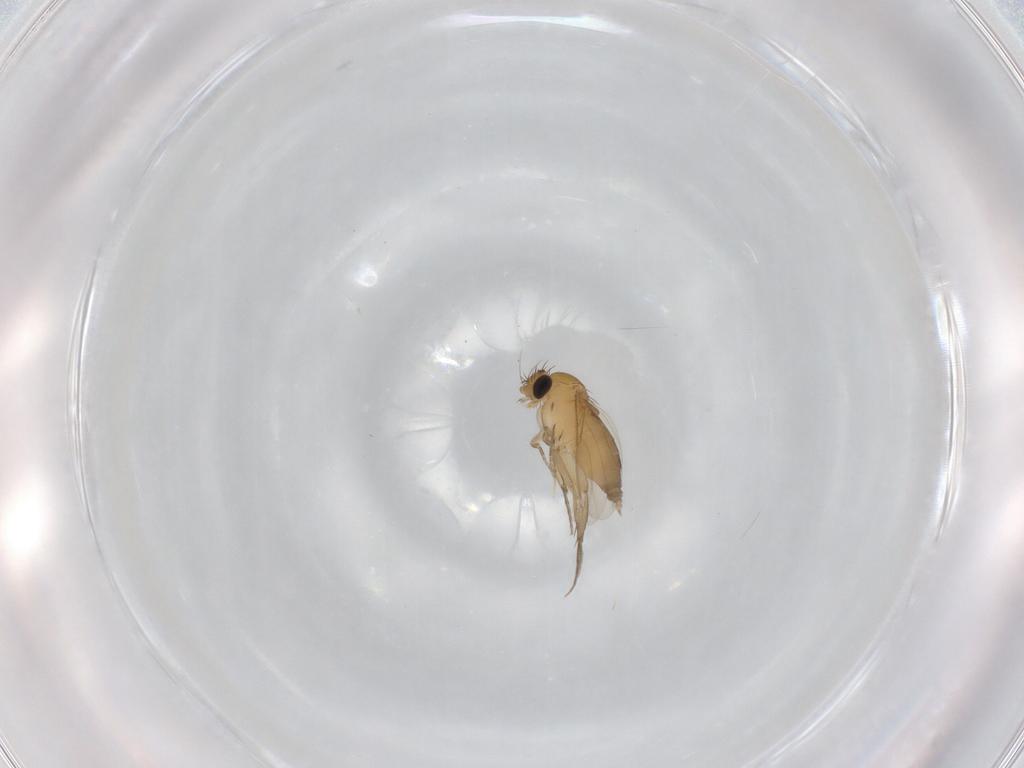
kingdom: Animalia
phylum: Arthropoda
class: Insecta
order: Diptera
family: Phoridae
